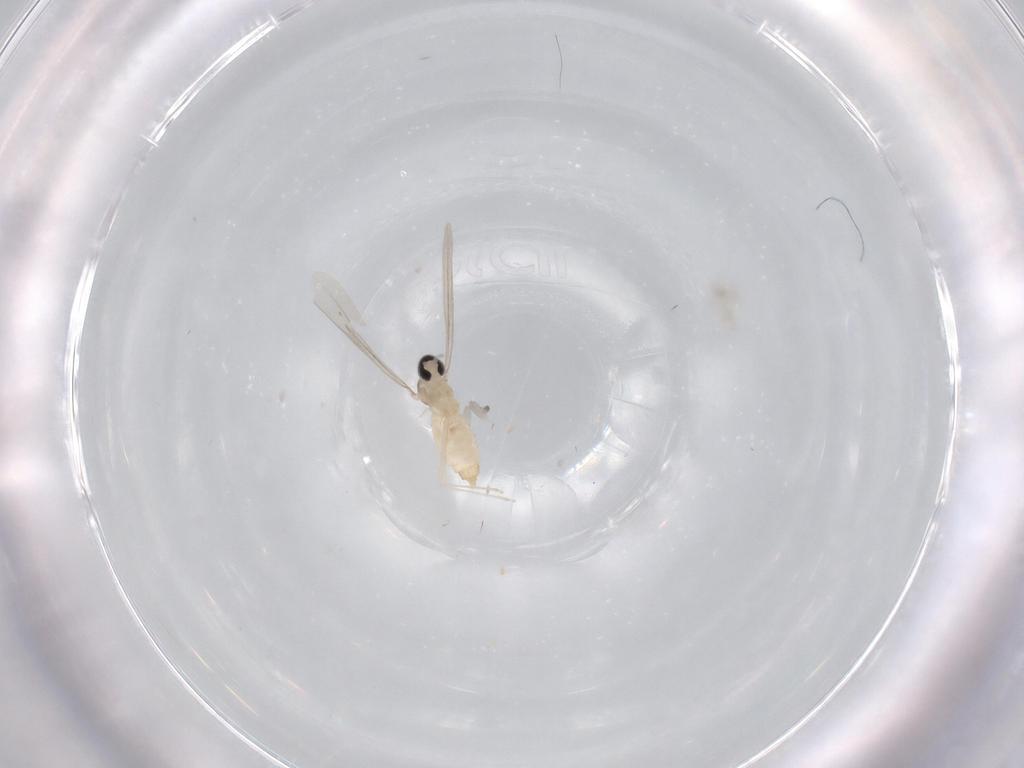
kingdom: Animalia
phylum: Arthropoda
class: Insecta
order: Diptera
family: Cecidomyiidae
